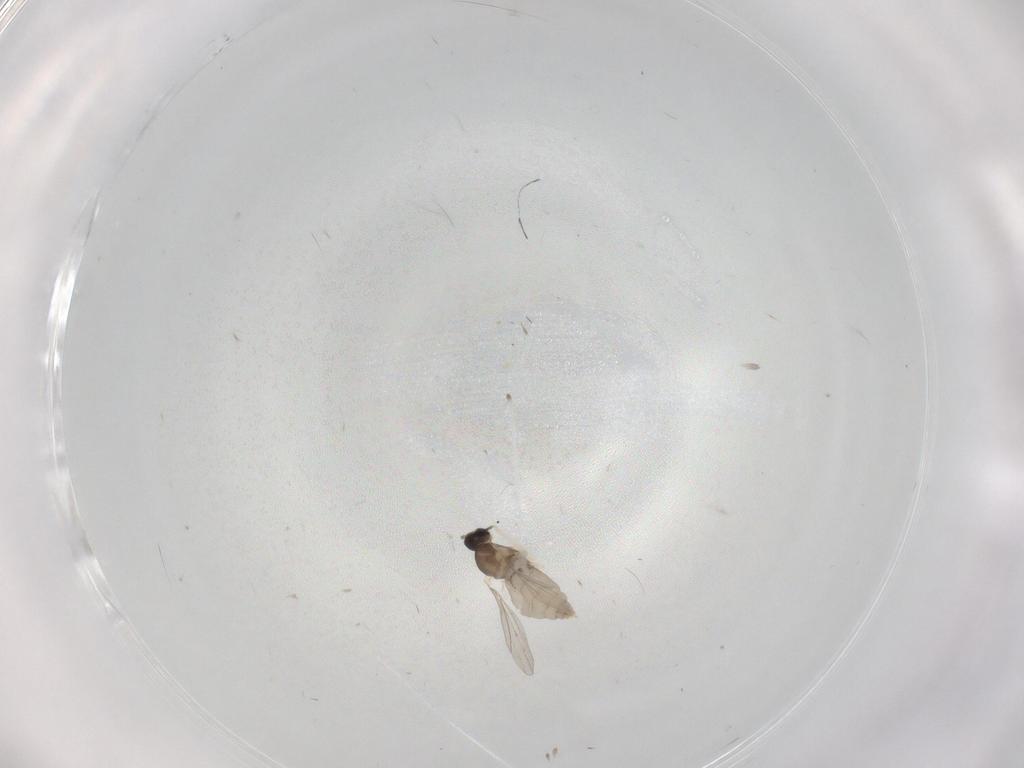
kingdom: Animalia
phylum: Arthropoda
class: Insecta
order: Diptera
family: Cecidomyiidae
